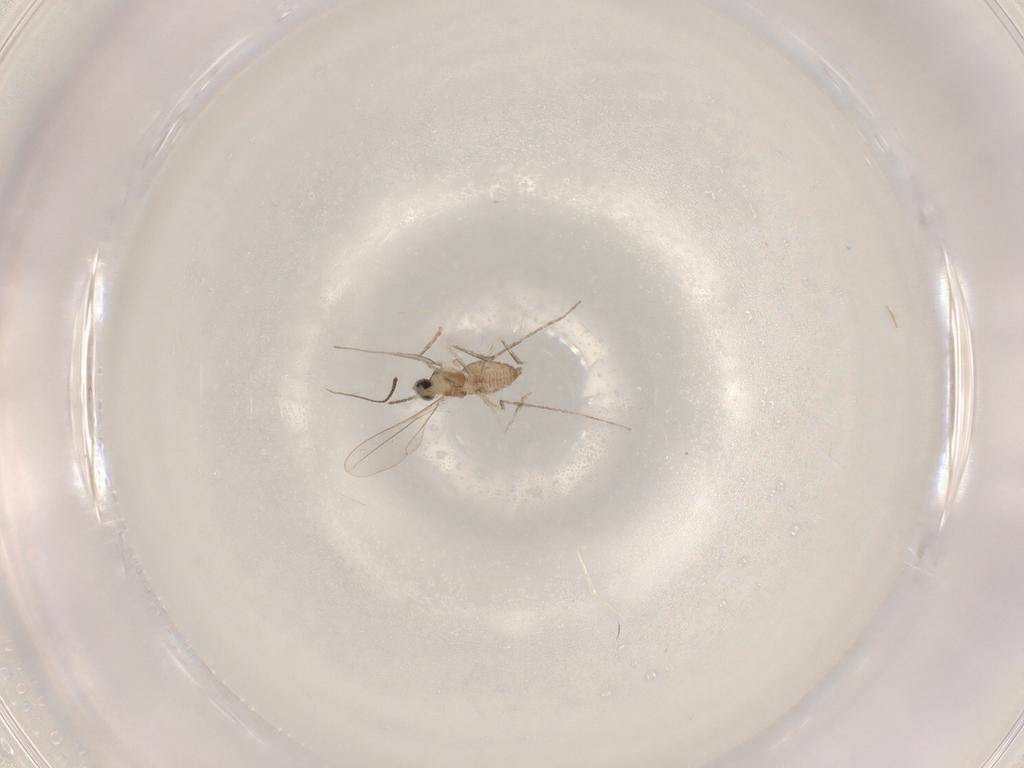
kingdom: Animalia
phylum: Arthropoda
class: Insecta
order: Diptera
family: Cecidomyiidae
